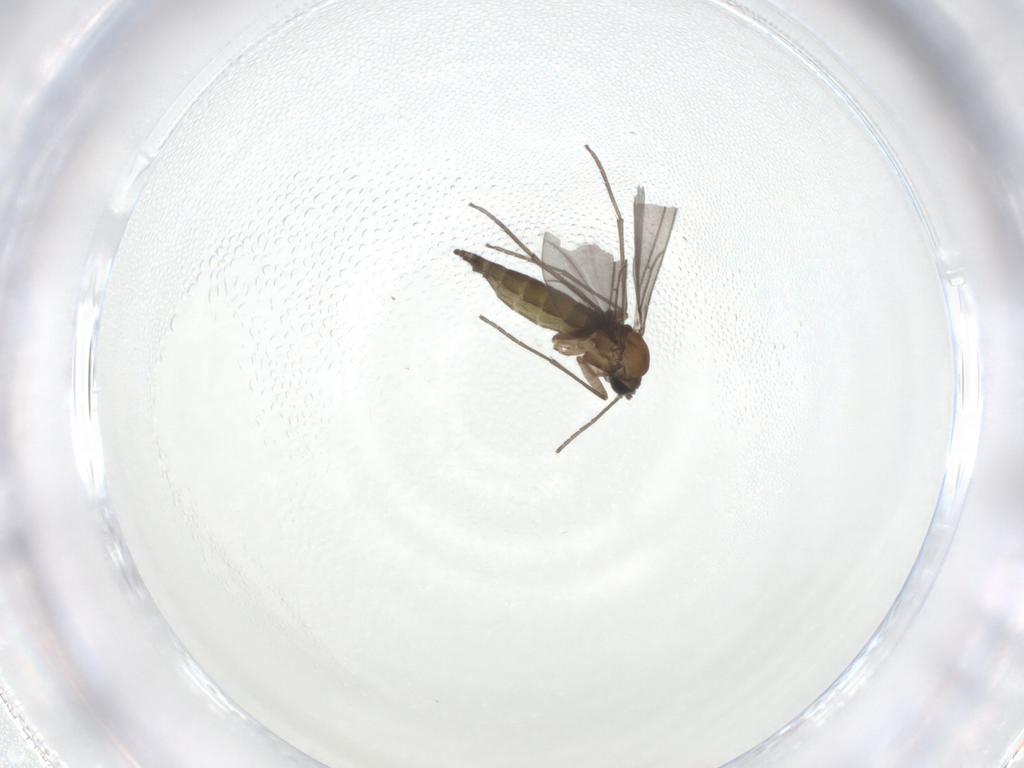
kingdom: Animalia
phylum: Arthropoda
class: Insecta
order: Diptera
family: Sciaridae
